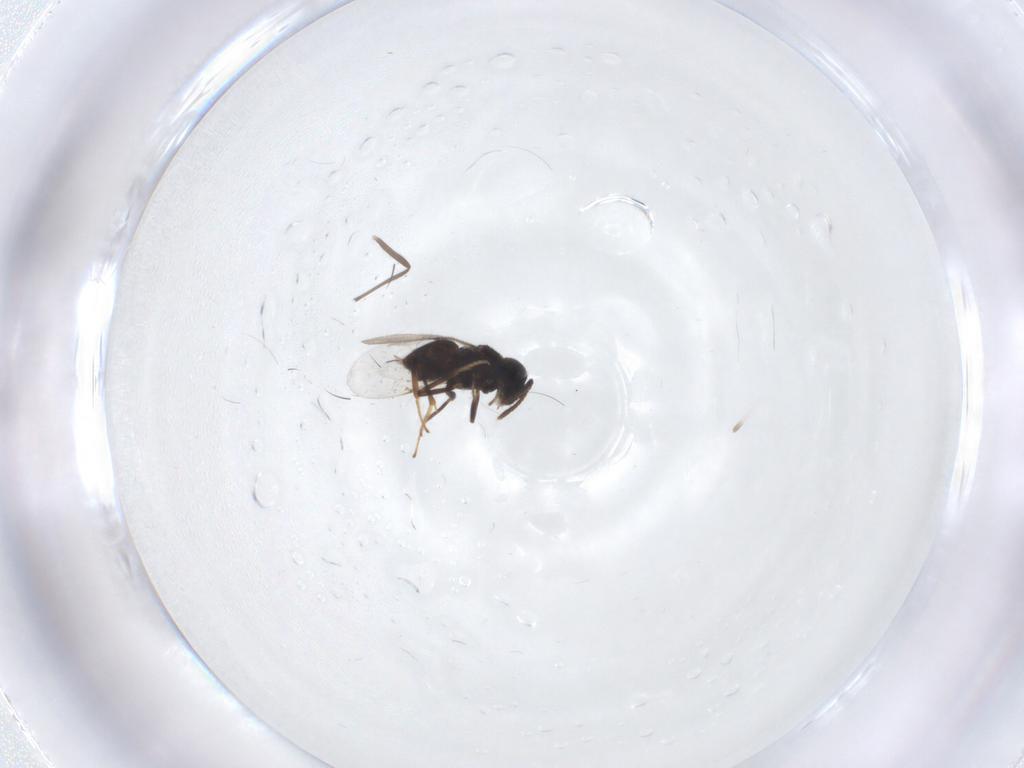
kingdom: Animalia
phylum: Arthropoda
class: Insecta
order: Hymenoptera
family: Encyrtidae
